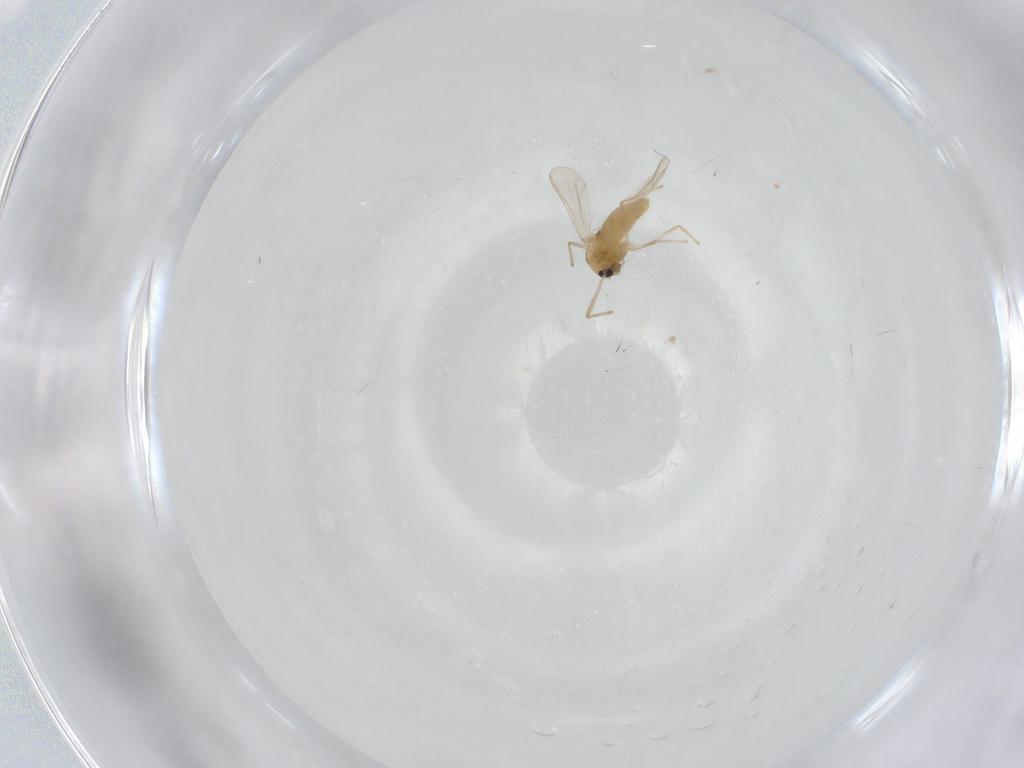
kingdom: Animalia
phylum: Arthropoda
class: Insecta
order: Diptera
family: Chironomidae
